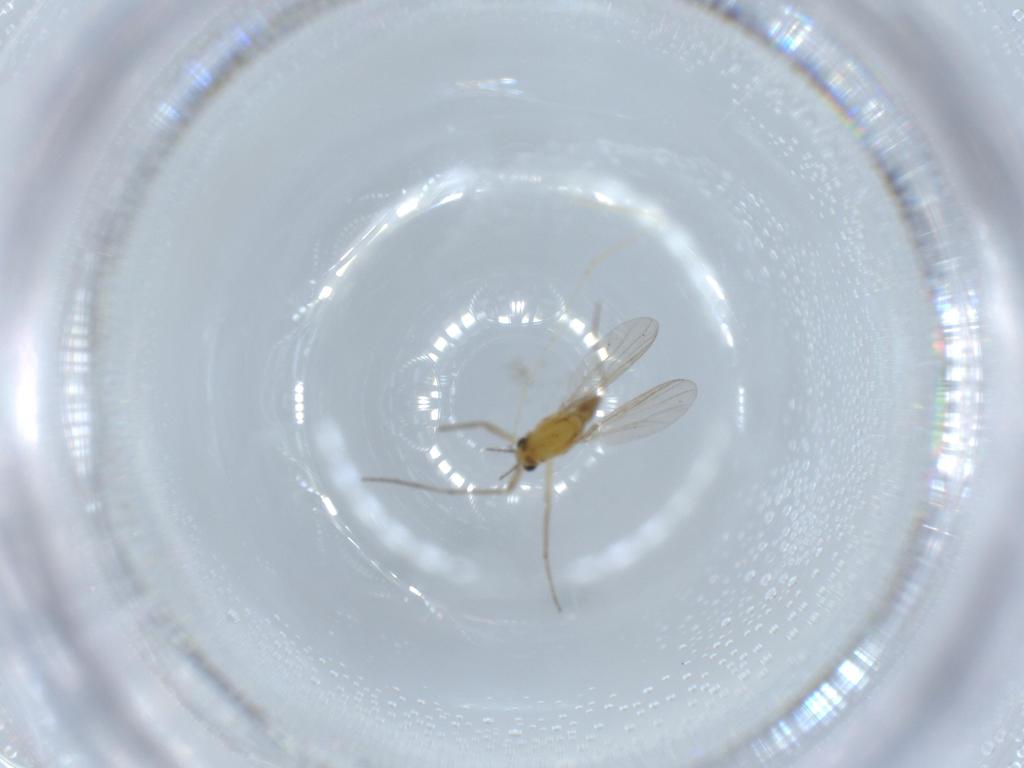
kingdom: Animalia
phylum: Arthropoda
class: Insecta
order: Diptera
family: Chironomidae
